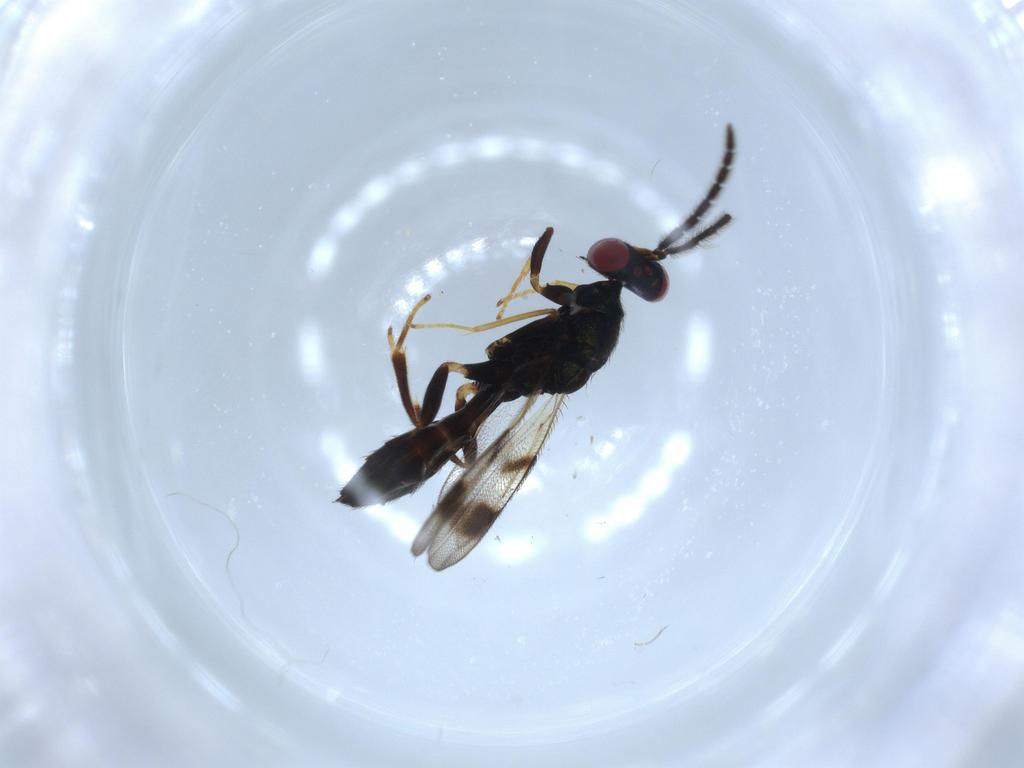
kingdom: Animalia
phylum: Arthropoda
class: Insecta
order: Hymenoptera
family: Pteromalidae
